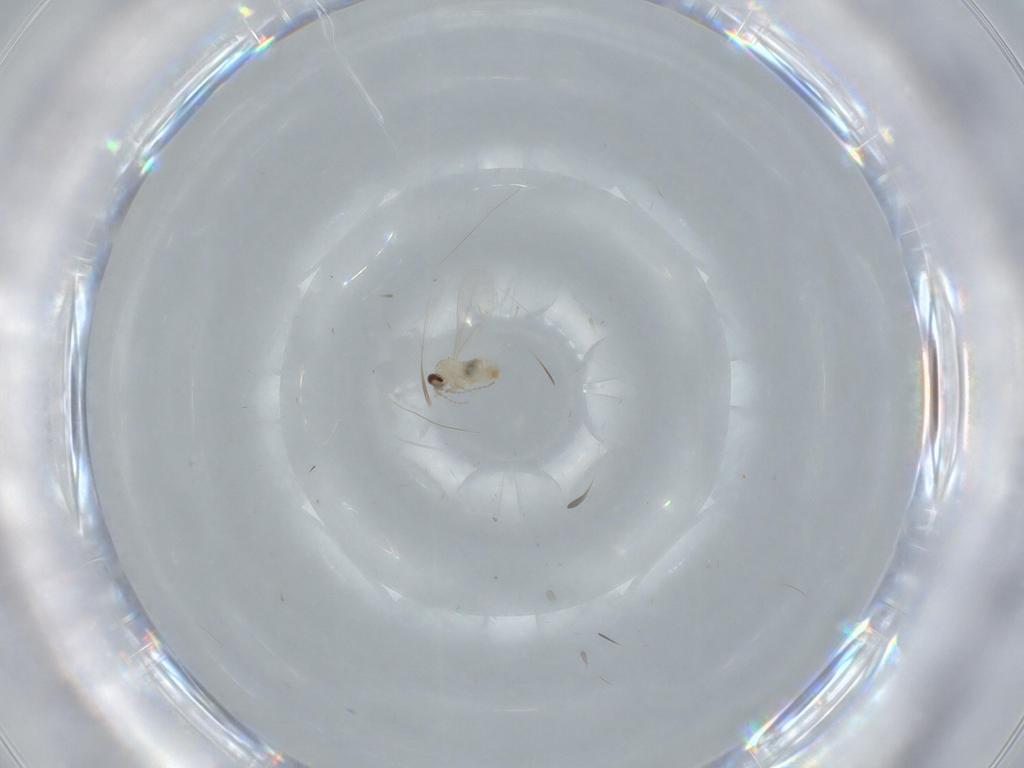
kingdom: Animalia
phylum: Arthropoda
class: Insecta
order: Diptera
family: Cecidomyiidae
